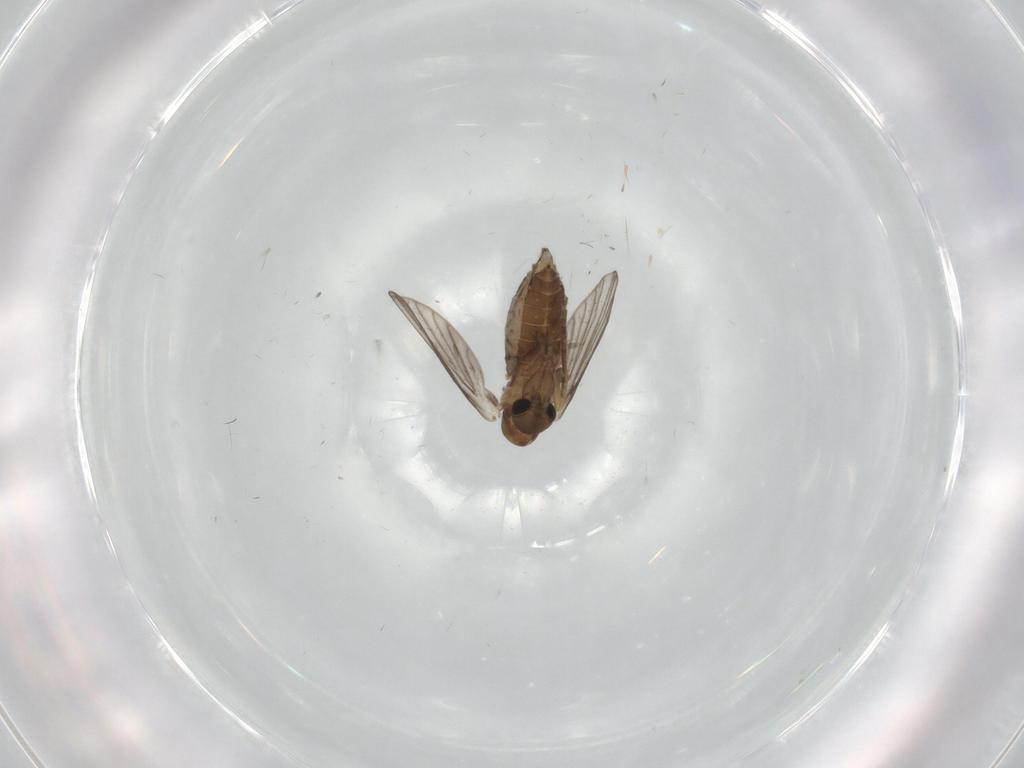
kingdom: Animalia
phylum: Arthropoda
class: Insecta
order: Diptera
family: Psychodidae
